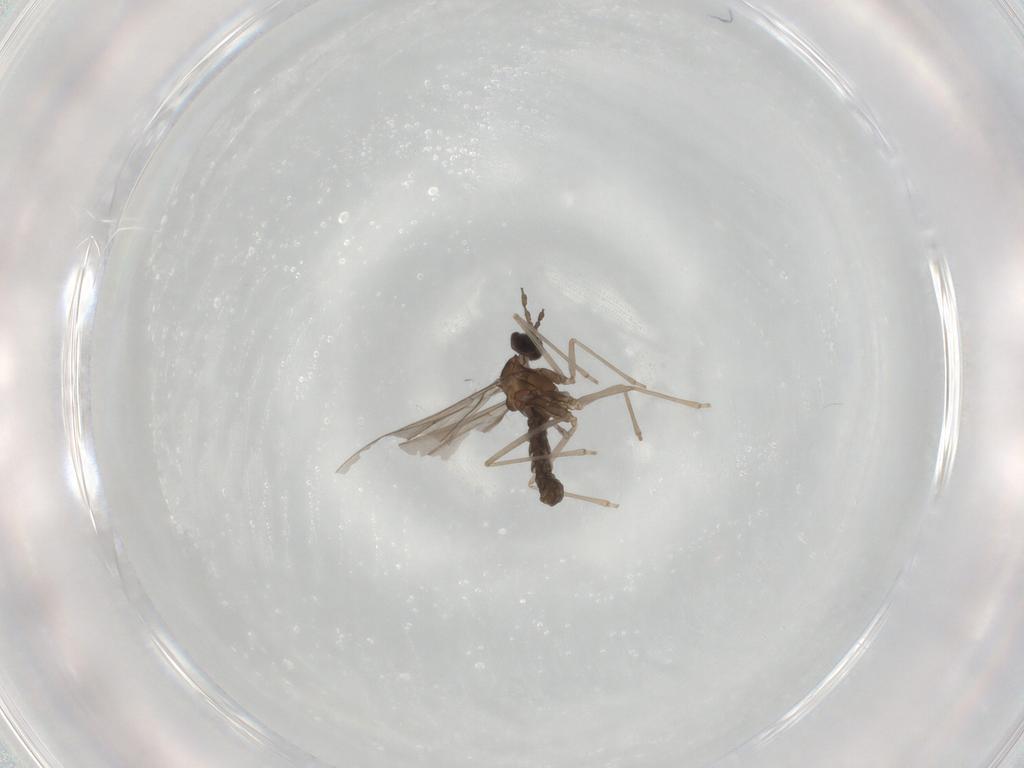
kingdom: Animalia
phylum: Arthropoda
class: Insecta
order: Diptera
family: Cecidomyiidae
